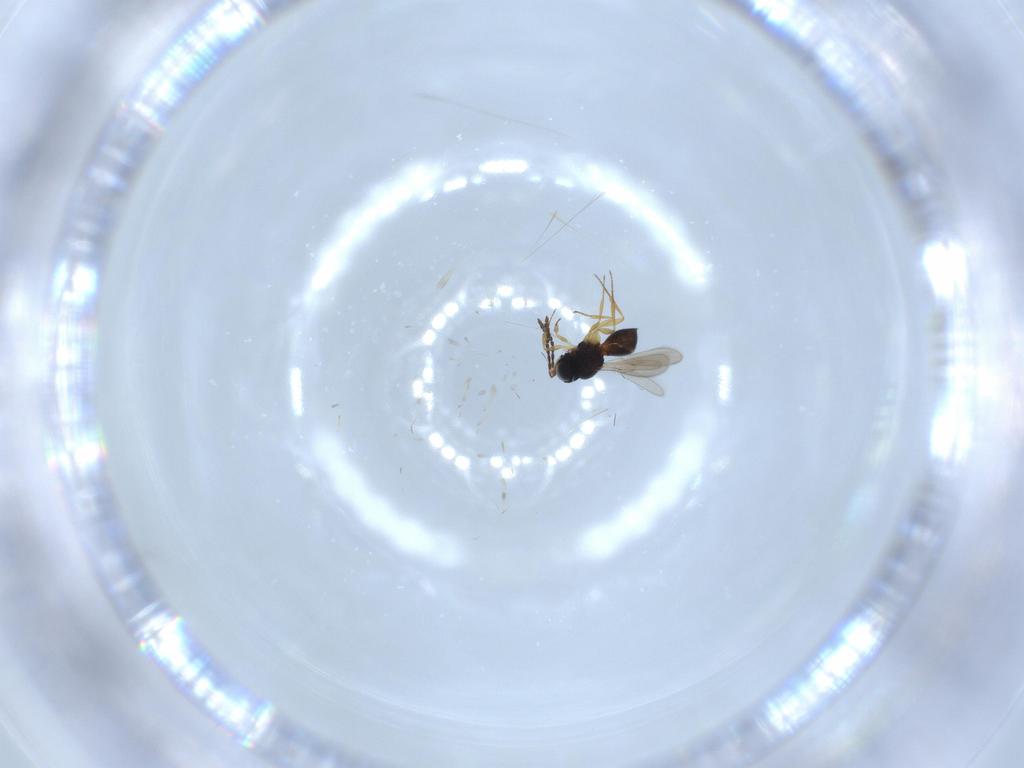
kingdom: Animalia
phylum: Arthropoda
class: Insecta
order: Hymenoptera
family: Scelionidae
